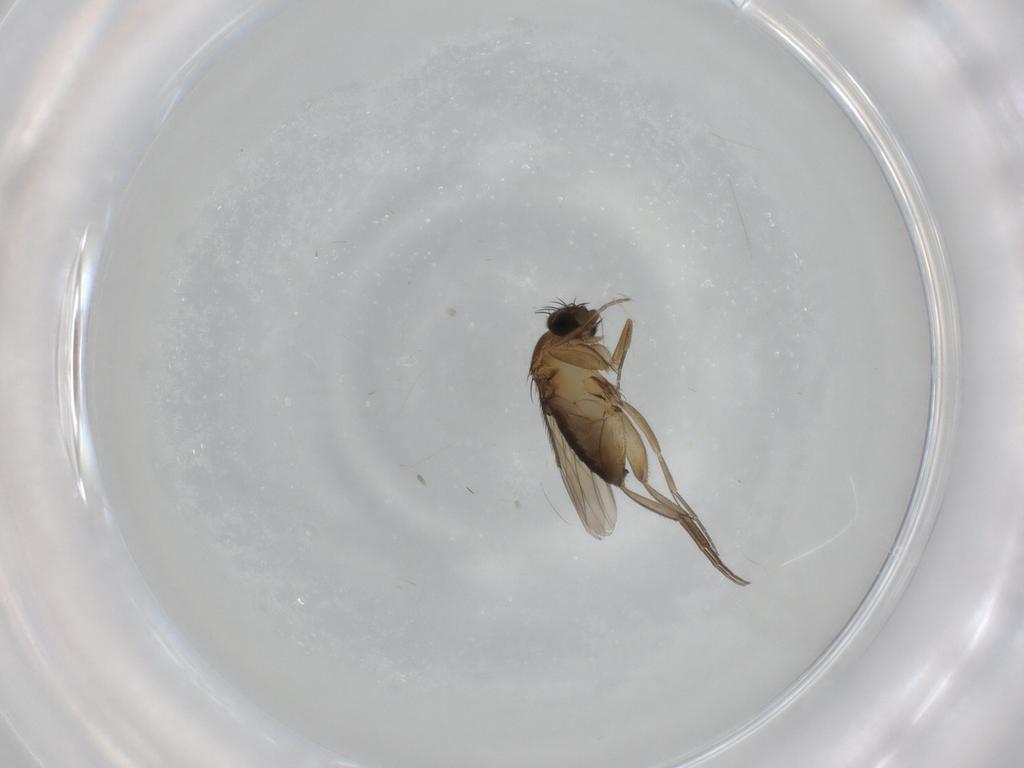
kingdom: Animalia
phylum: Arthropoda
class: Insecta
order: Diptera
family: Phoridae
